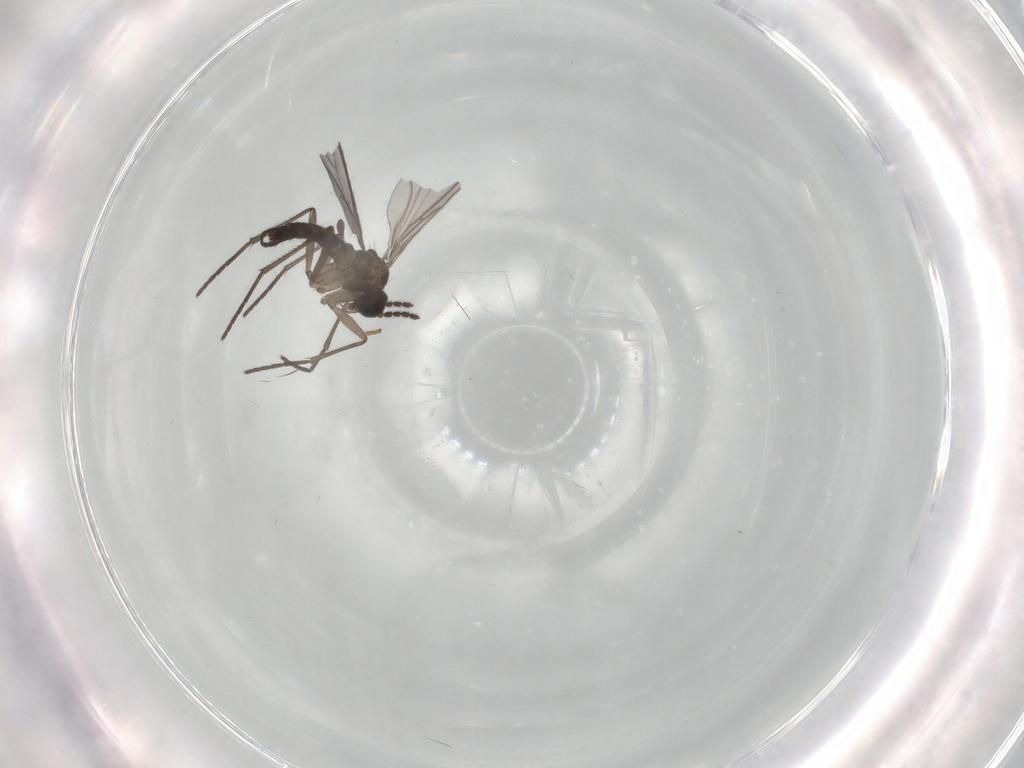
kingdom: Animalia
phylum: Arthropoda
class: Insecta
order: Diptera
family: Sciaridae
